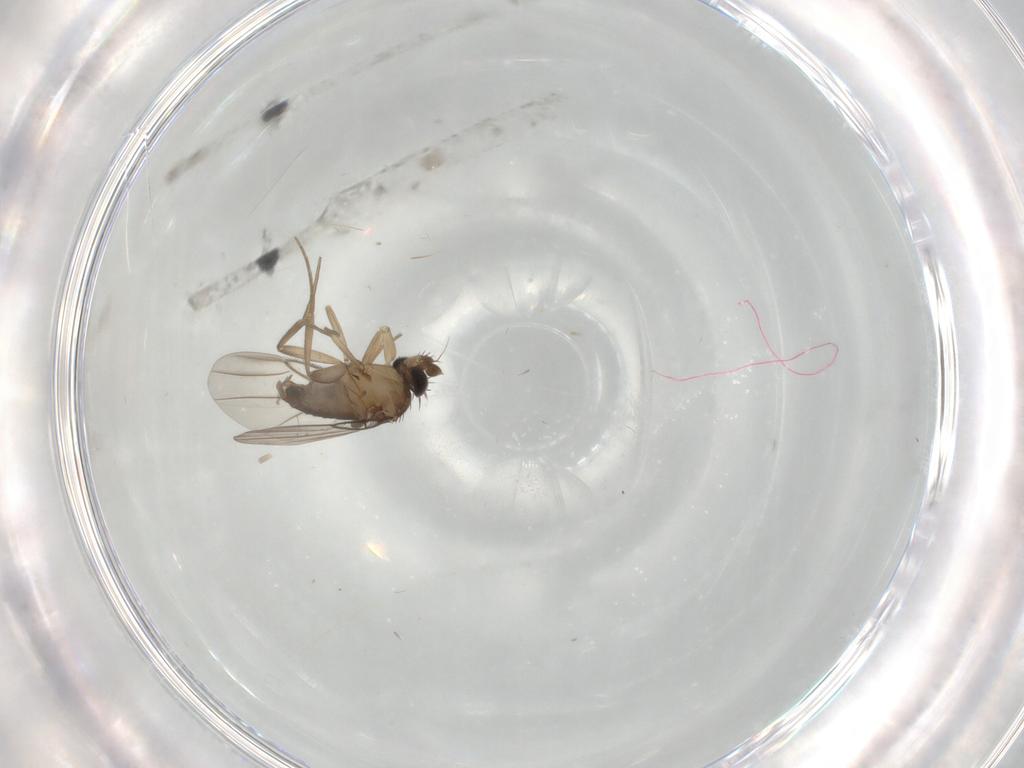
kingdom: Animalia
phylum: Arthropoda
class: Insecta
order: Diptera
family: Phoridae
